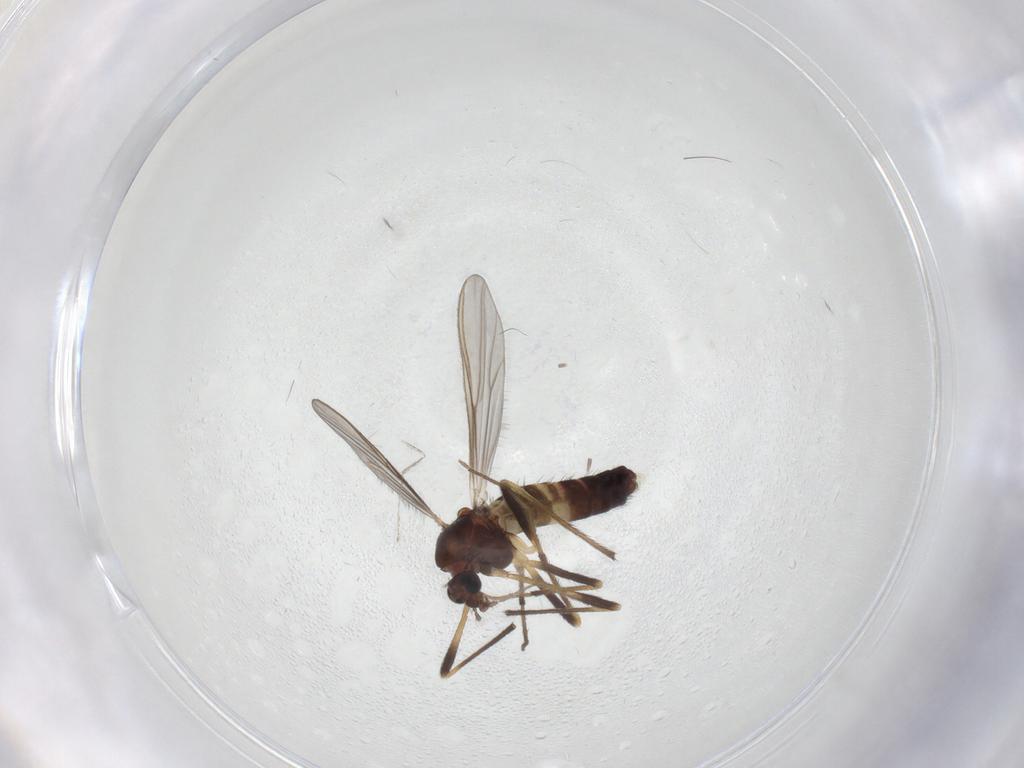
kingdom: Animalia
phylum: Arthropoda
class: Insecta
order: Diptera
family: Cecidomyiidae
